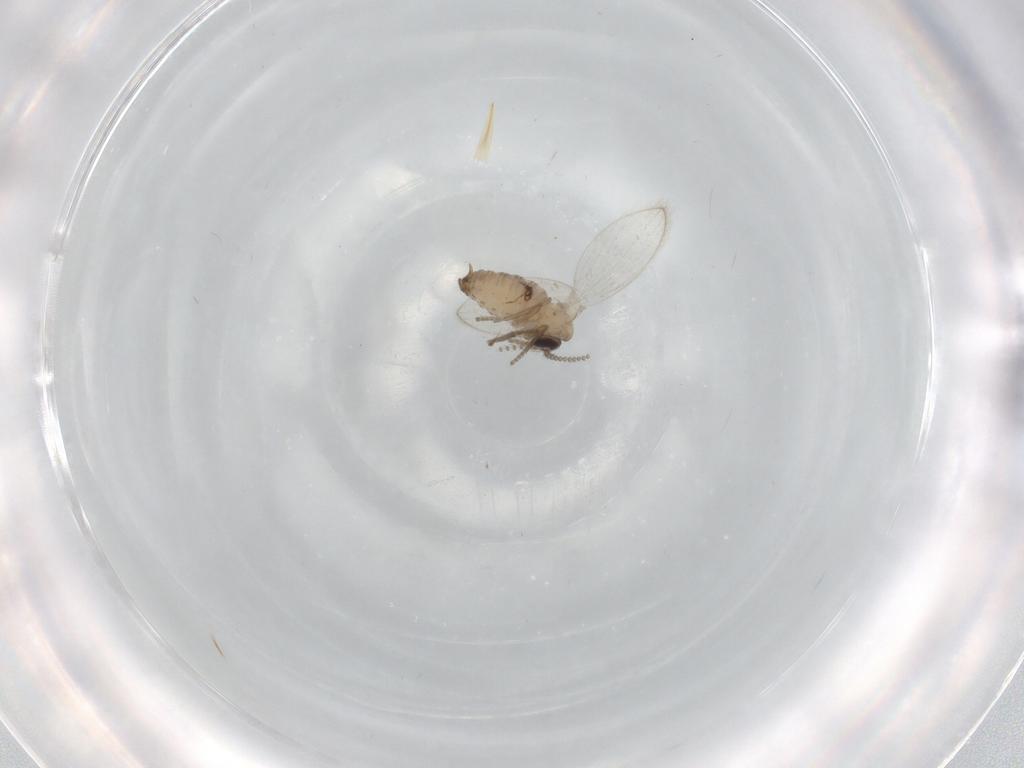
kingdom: Animalia
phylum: Arthropoda
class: Insecta
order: Diptera
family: Psychodidae
